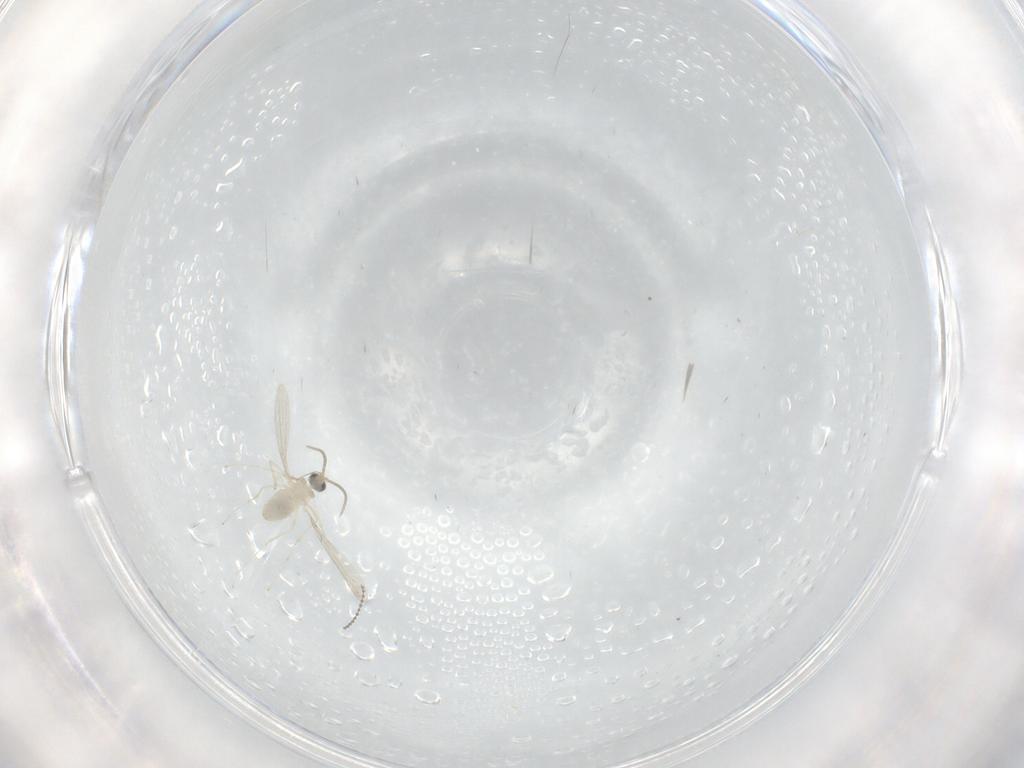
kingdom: Animalia
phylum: Arthropoda
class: Insecta
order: Diptera
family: Cecidomyiidae
